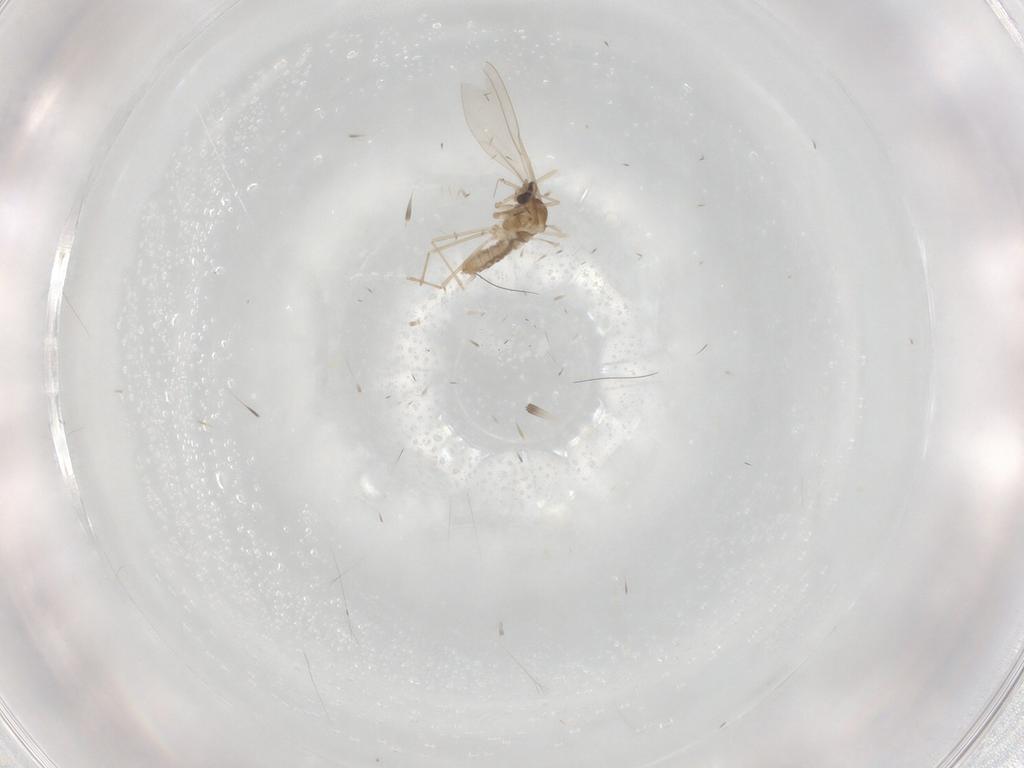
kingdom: Animalia
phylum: Arthropoda
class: Insecta
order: Diptera
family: Cecidomyiidae
